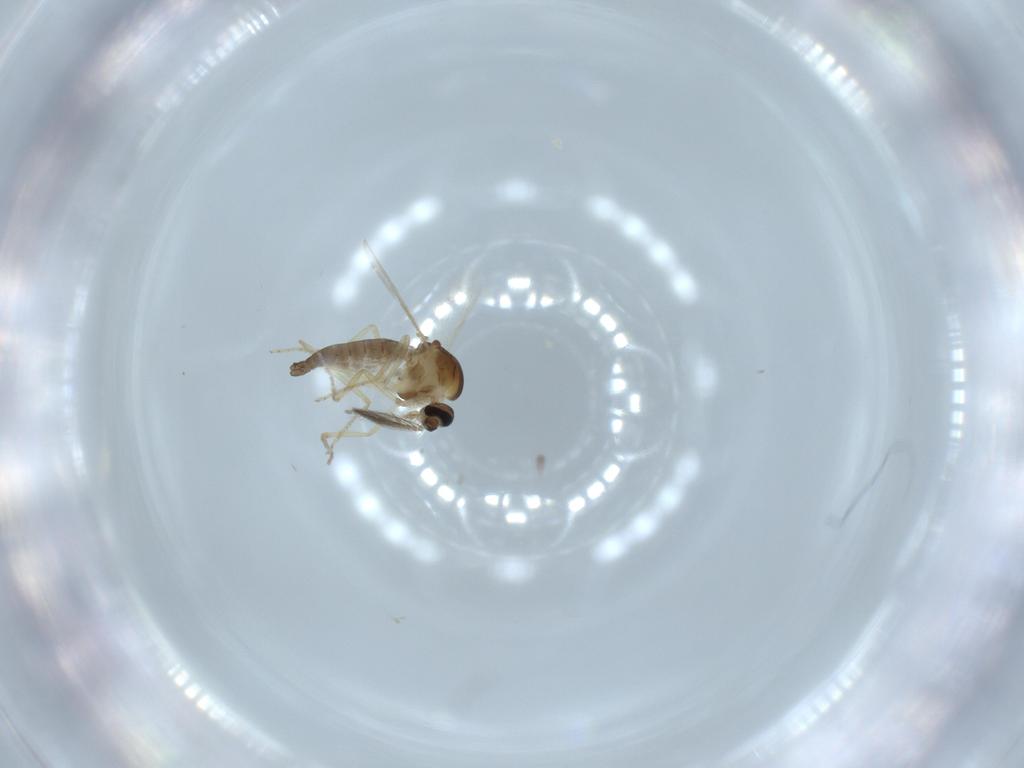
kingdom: Animalia
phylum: Arthropoda
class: Insecta
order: Diptera
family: Ceratopogonidae
